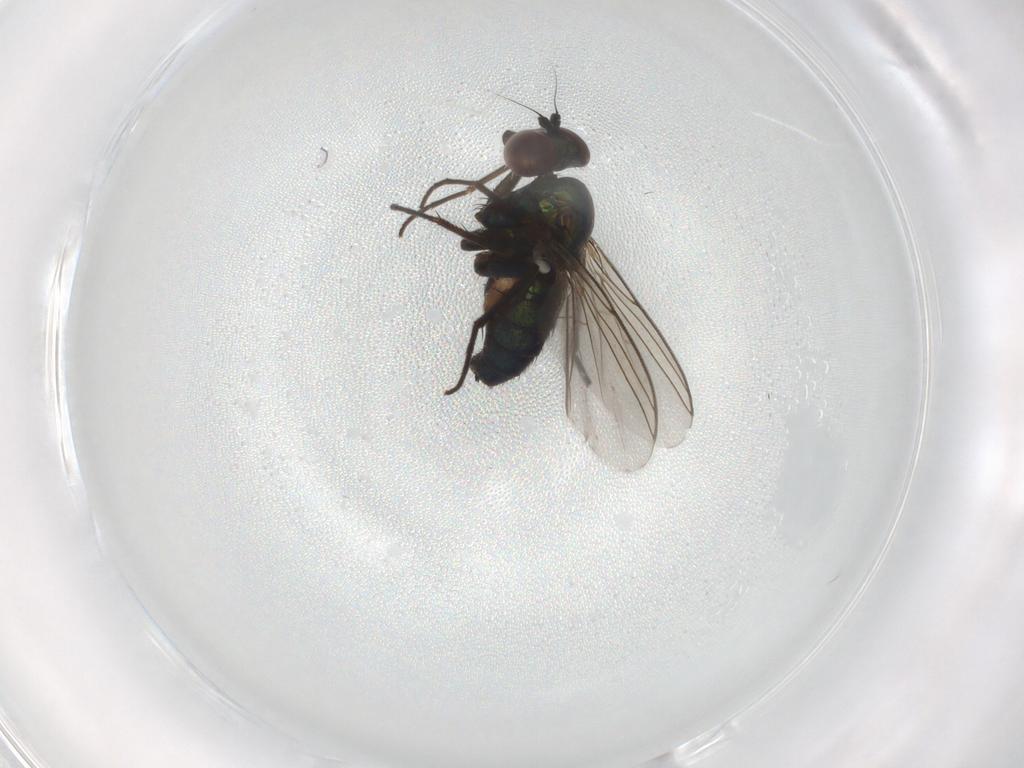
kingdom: Animalia
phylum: Arthropoda
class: Insecta
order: Diptera
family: Dolichopodidae
